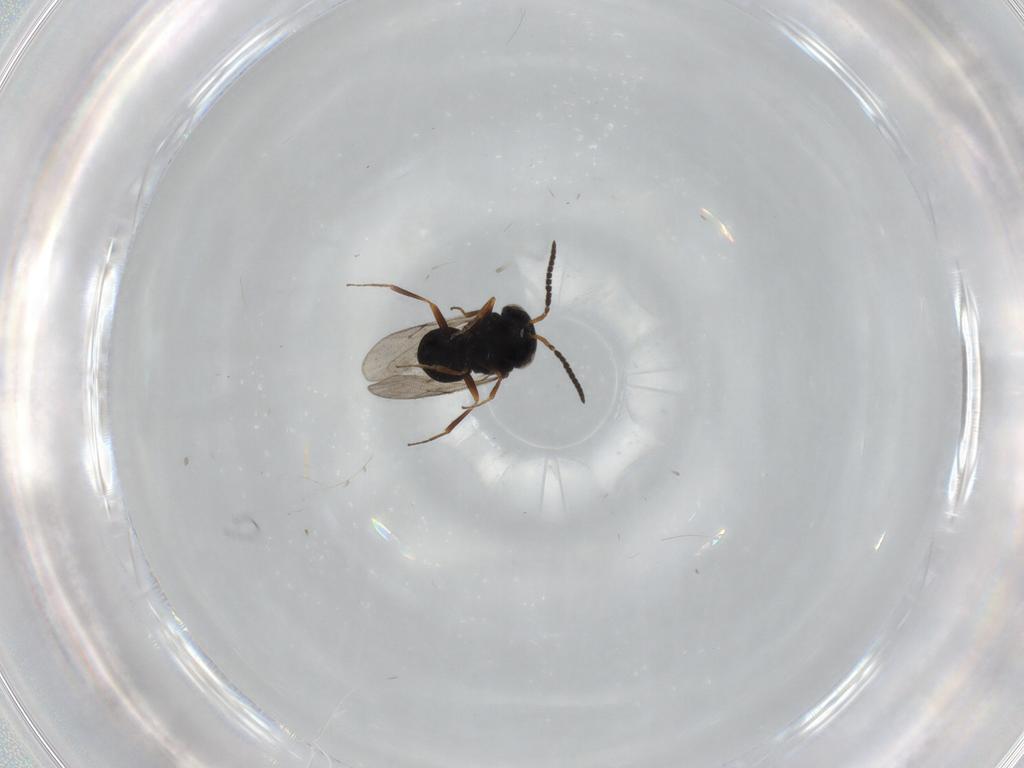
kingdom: Animalia
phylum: Arthropoda
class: Insecta
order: Hymenoptera
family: Scelionidae
